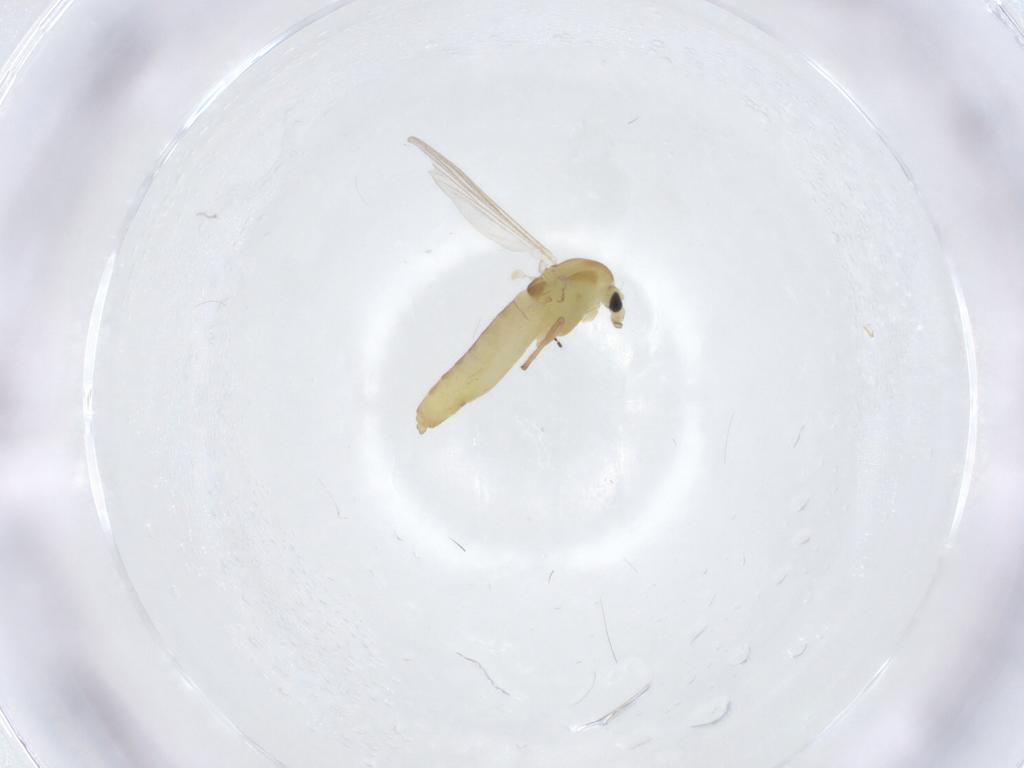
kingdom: Animalia
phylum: Arthropoda
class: Insecta
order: Diptera
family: Chironomidae
